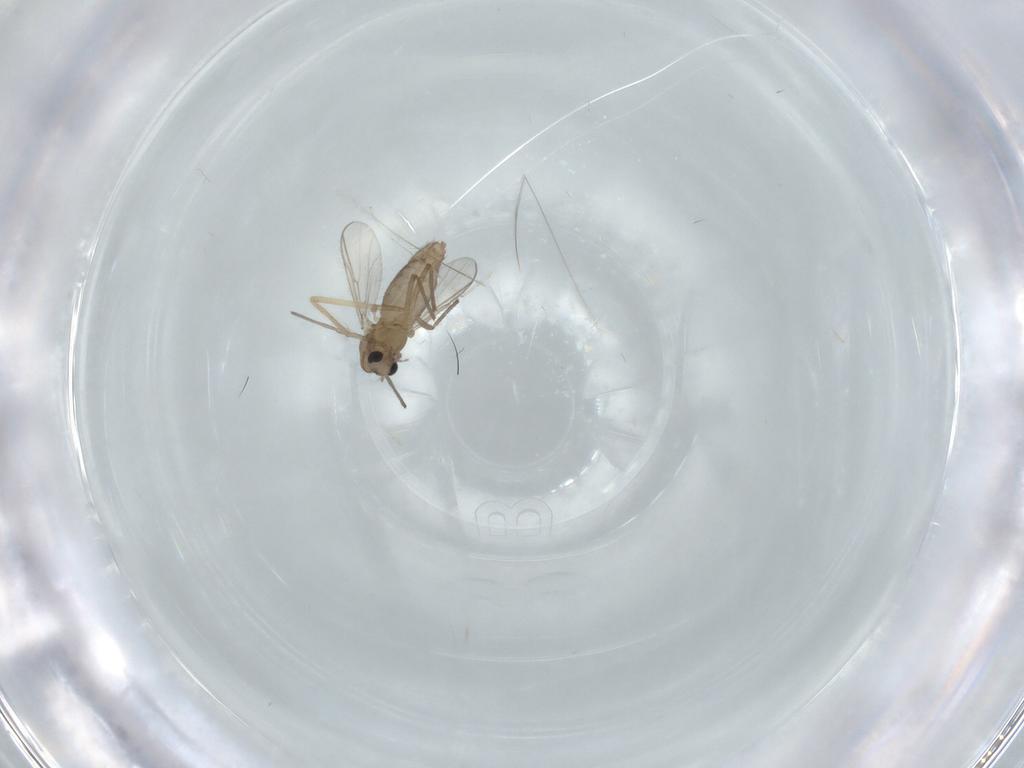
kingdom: Animalia
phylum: Arthropoda
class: Insecta
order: Diptera
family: Chironomidae
